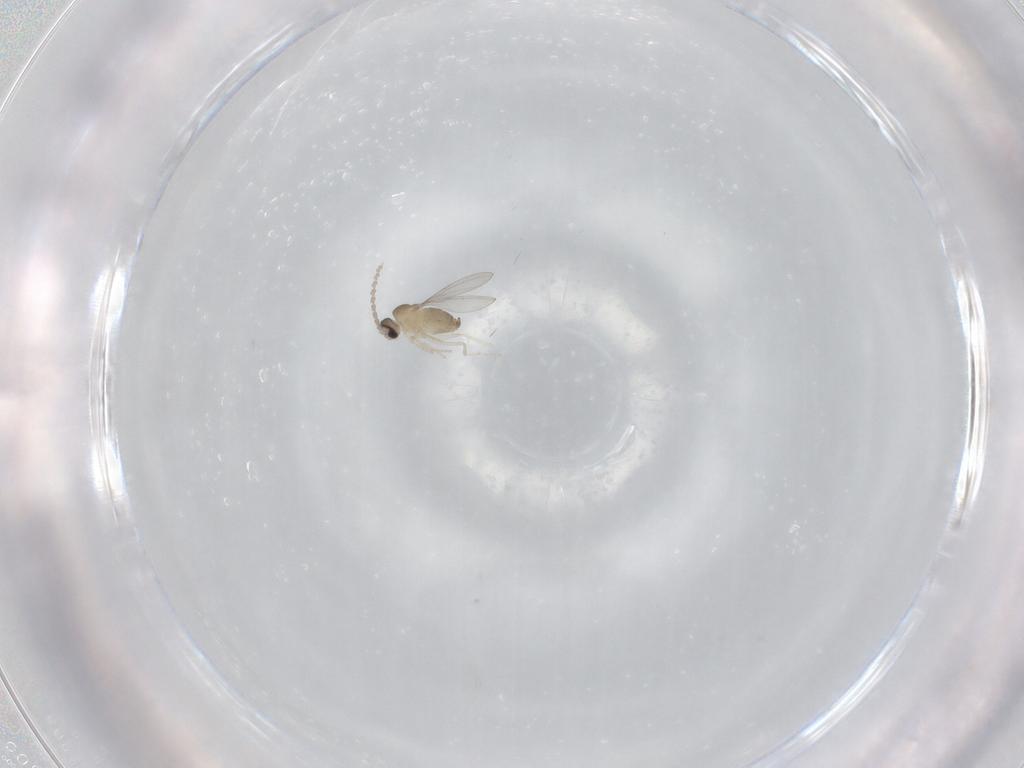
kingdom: Animalia
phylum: Arthropoda
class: Insecta
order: Diptera
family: Cecidomyiidae
